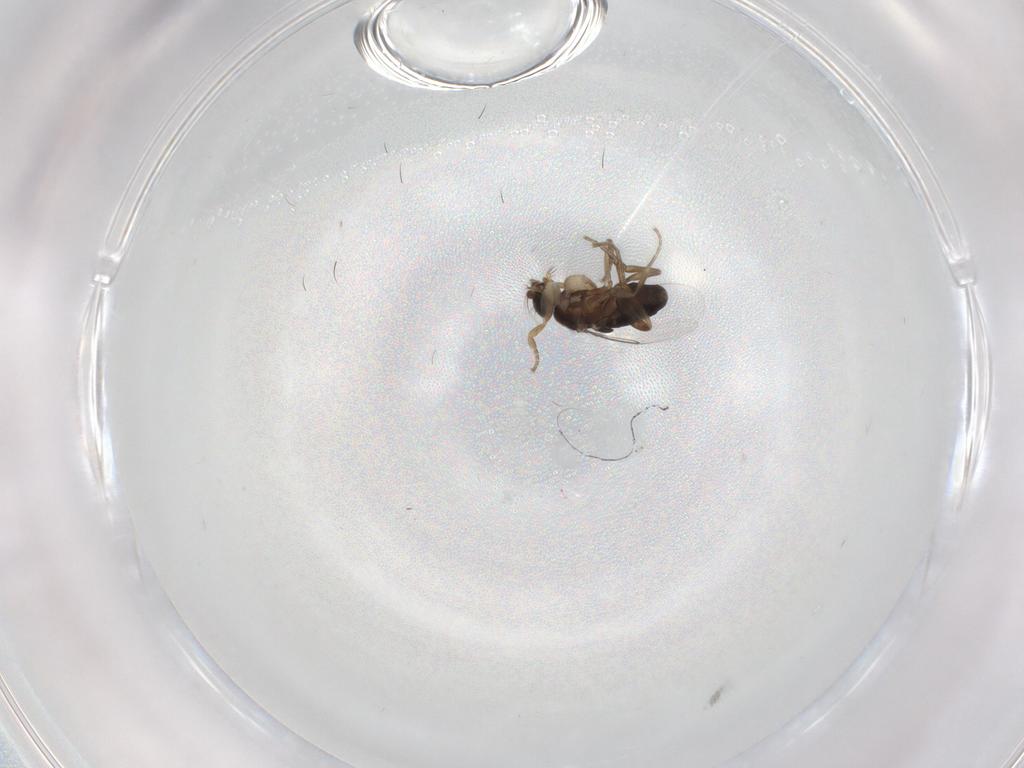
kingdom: Animalia
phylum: Arthropoda
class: Insecta
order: Diptera
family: Phoridae
